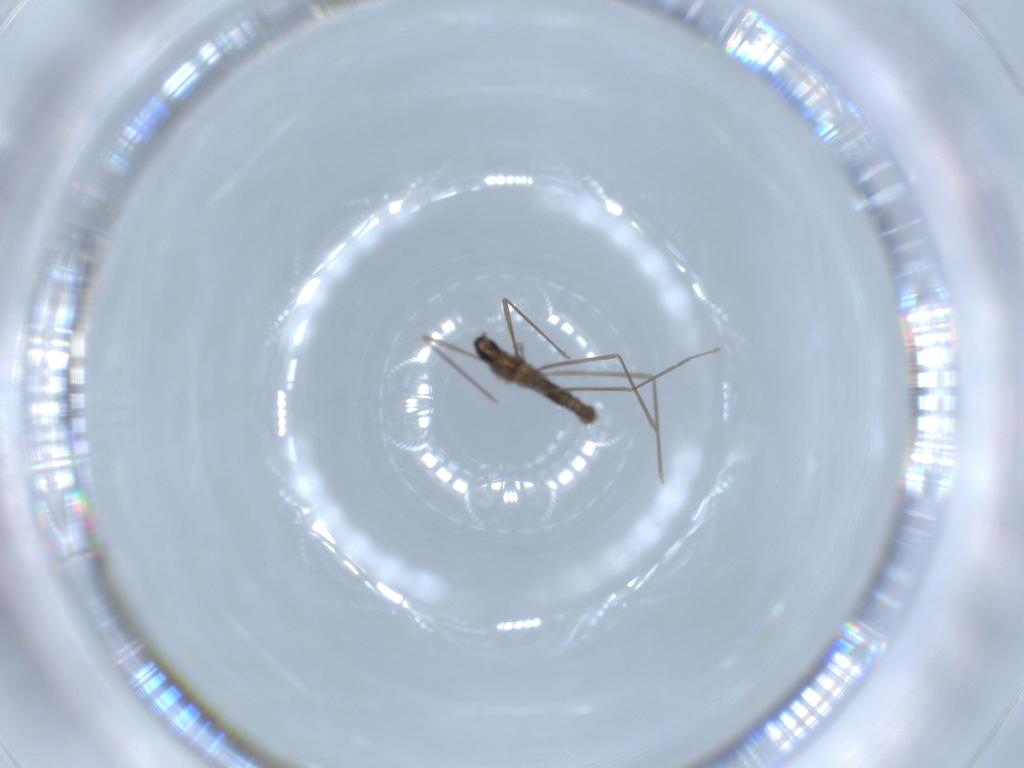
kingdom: Animalia
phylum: Arthropoda
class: Insecta
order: Diptera
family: Cecidomyiidae
